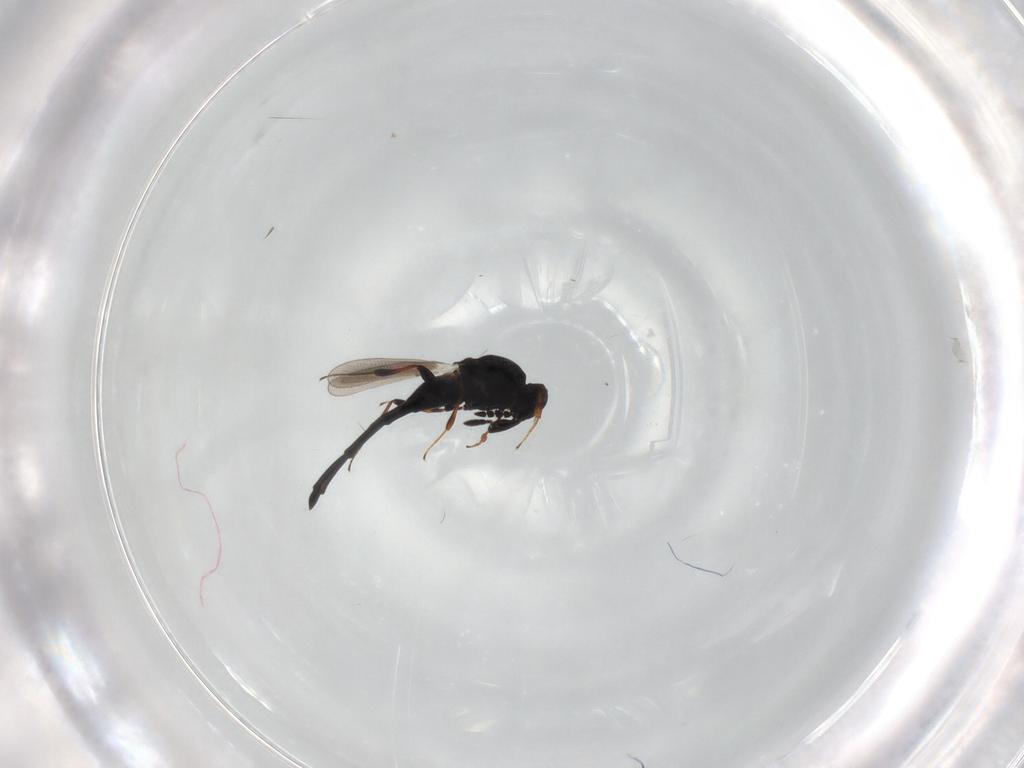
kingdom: Animalia
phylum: Arthropoda
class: Insecta
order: Hymenoptera
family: Platygastridae
